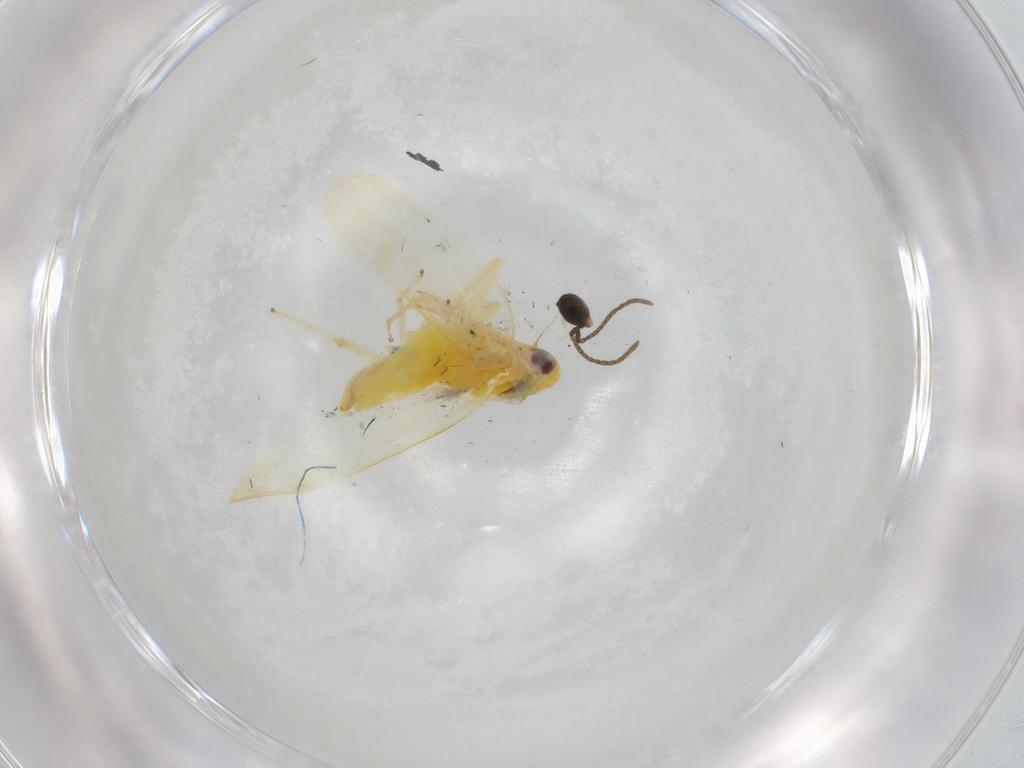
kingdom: Animalia
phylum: Arthropoda
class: Insecta
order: Hemiptera
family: Cicadellidae
